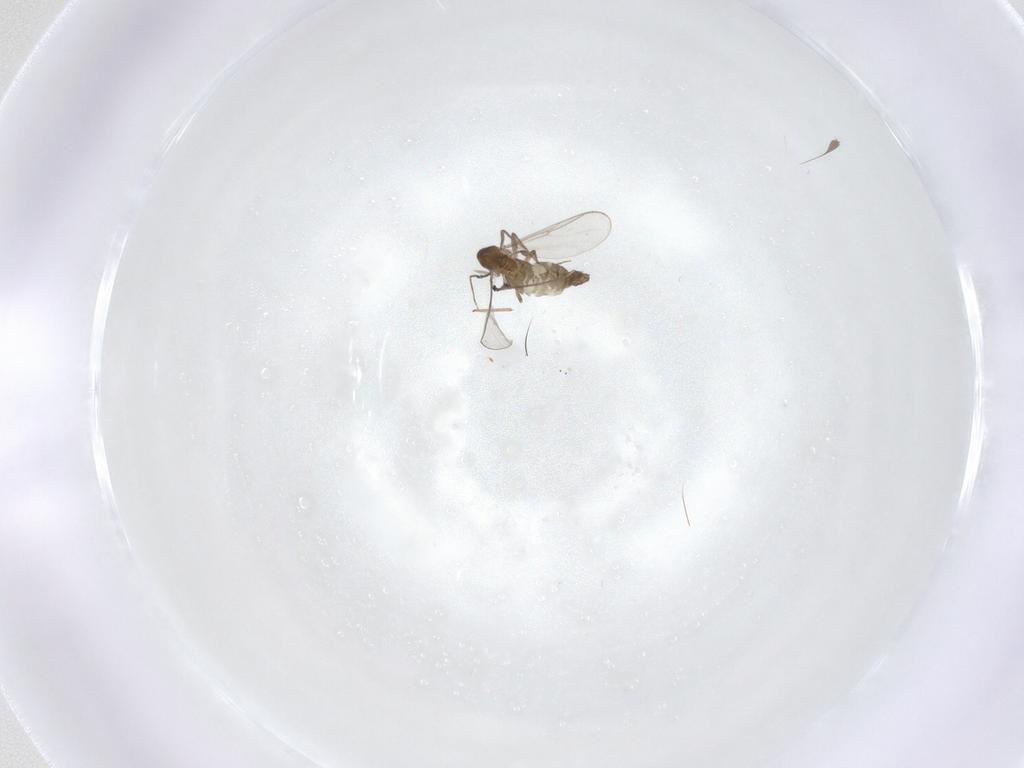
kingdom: Animalia
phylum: Arthropoda
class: Insecta
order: Diptera
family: Chironomidae
